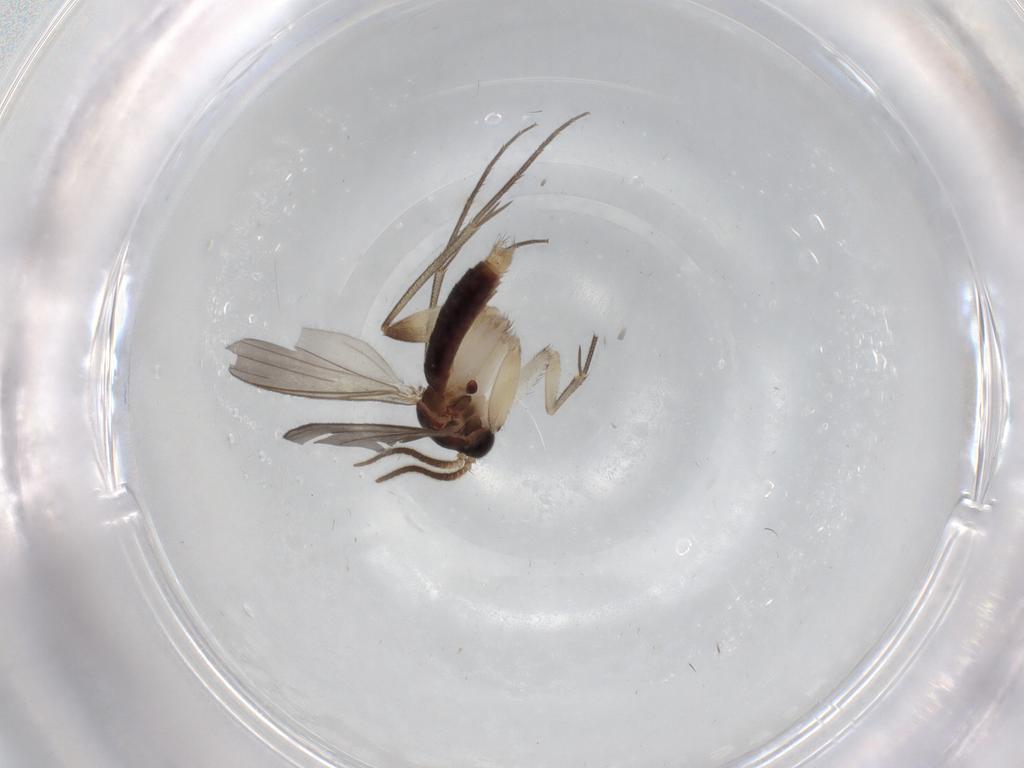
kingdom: Animalia
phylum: Arthropoda
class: Insecta
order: Diptera
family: Mycetophilidae
